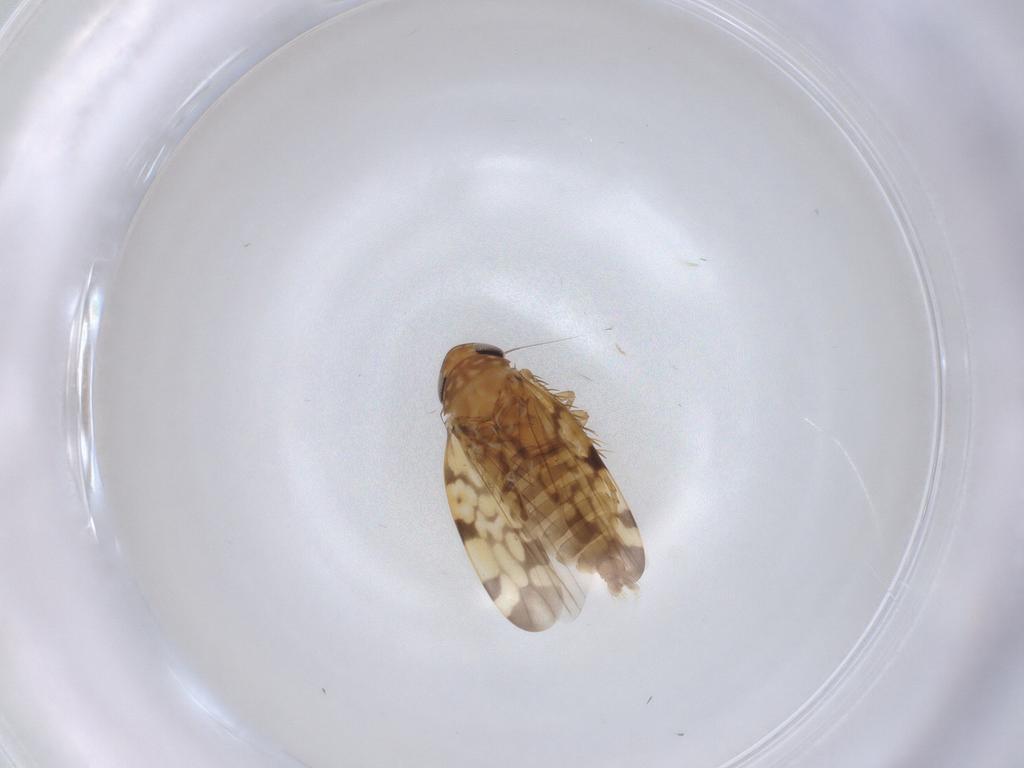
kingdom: Animalia
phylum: Arthropoda
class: Insecta
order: Hemiptera
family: Cicadellidae
